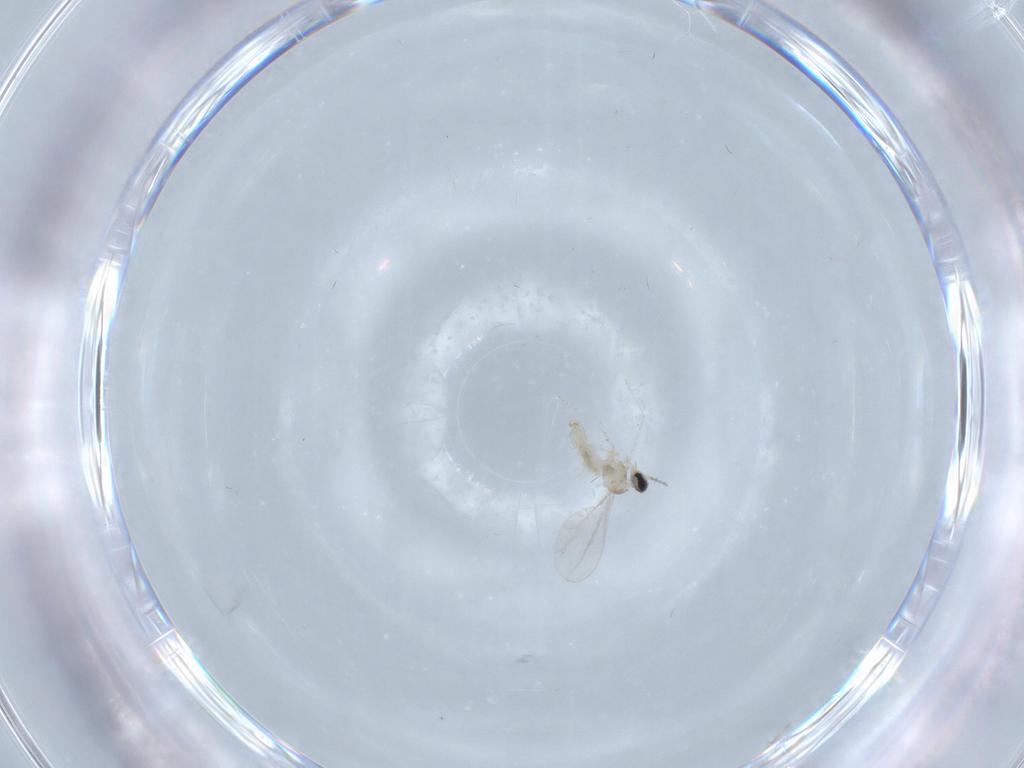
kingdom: Animalia
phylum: Arthropoda
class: Insecta
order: Diptera
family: Cecidomyiidae
